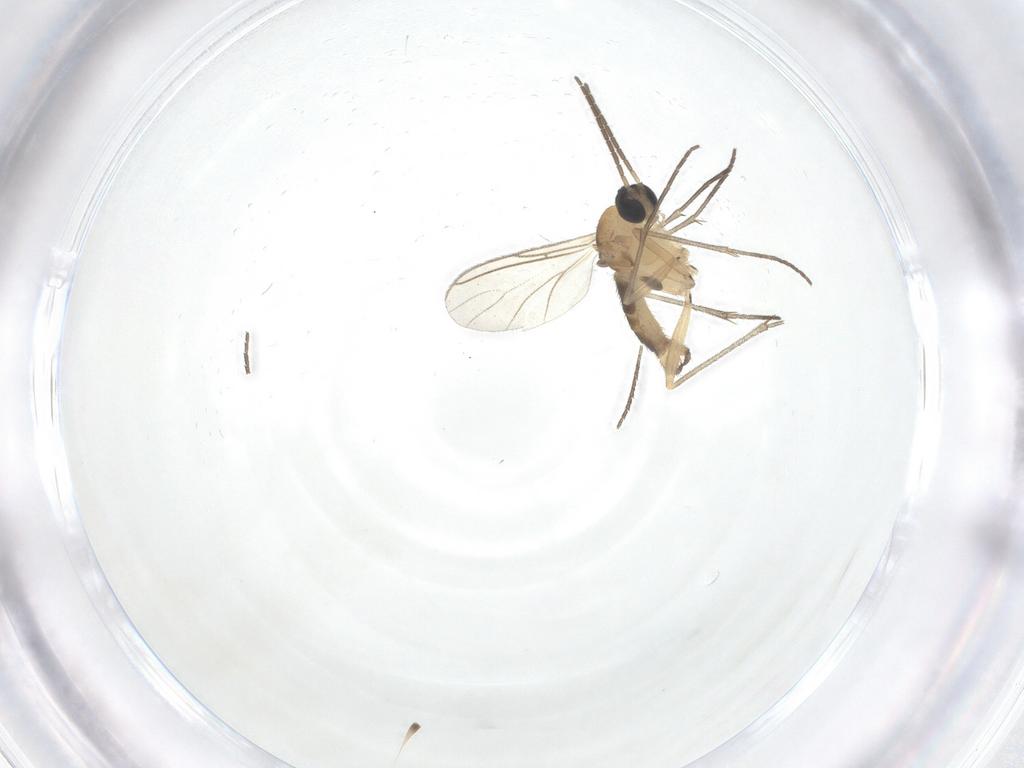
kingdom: Animalia
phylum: Arthropoda
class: Insecta
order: Diptera
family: Sciaridae
